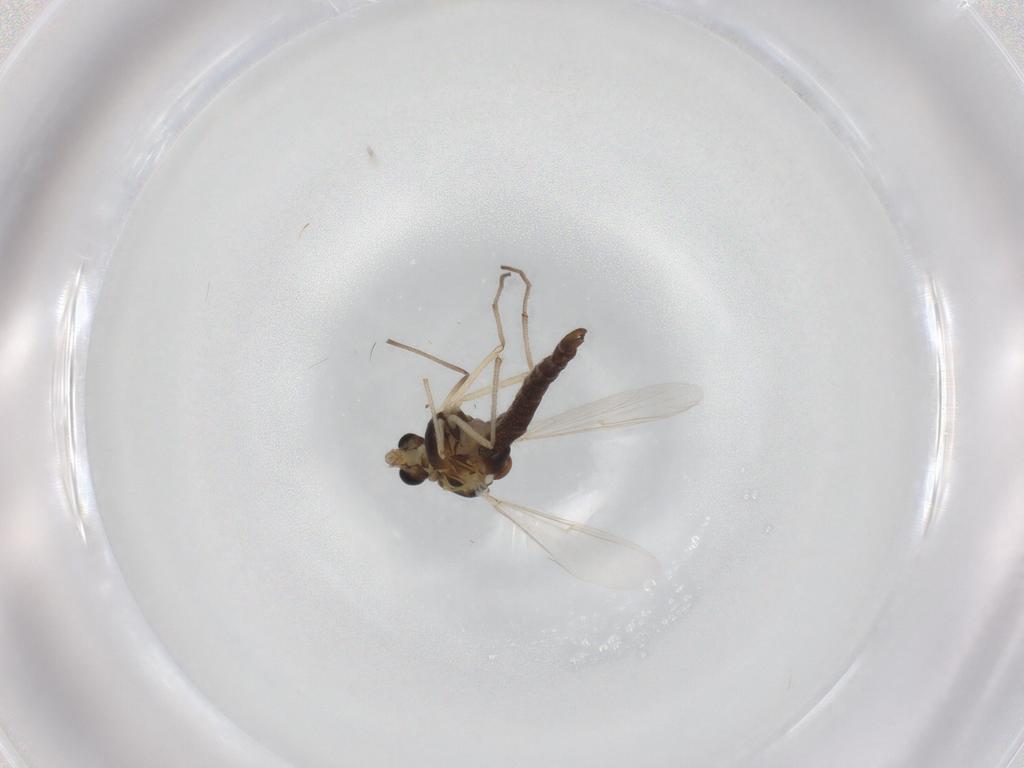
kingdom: Animalia
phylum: Arthropoda
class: Insecta
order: Diptera
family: Chironomidae
